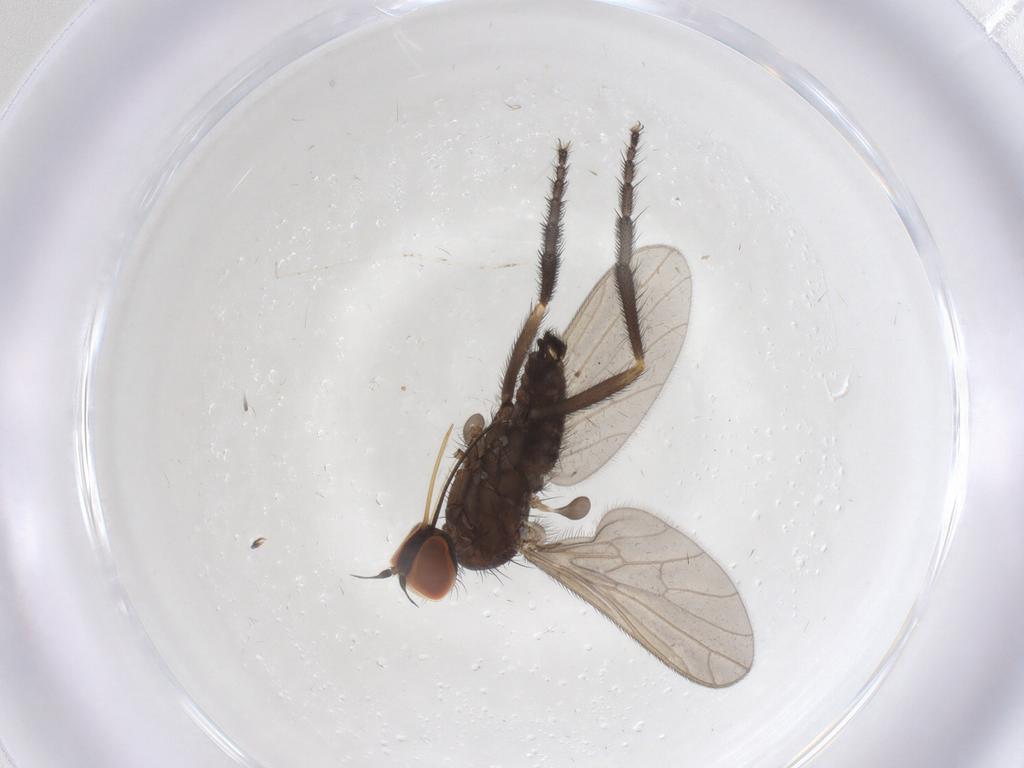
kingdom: Animalia
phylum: Arthropoda
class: Insecta
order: Diptera
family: Empididae
